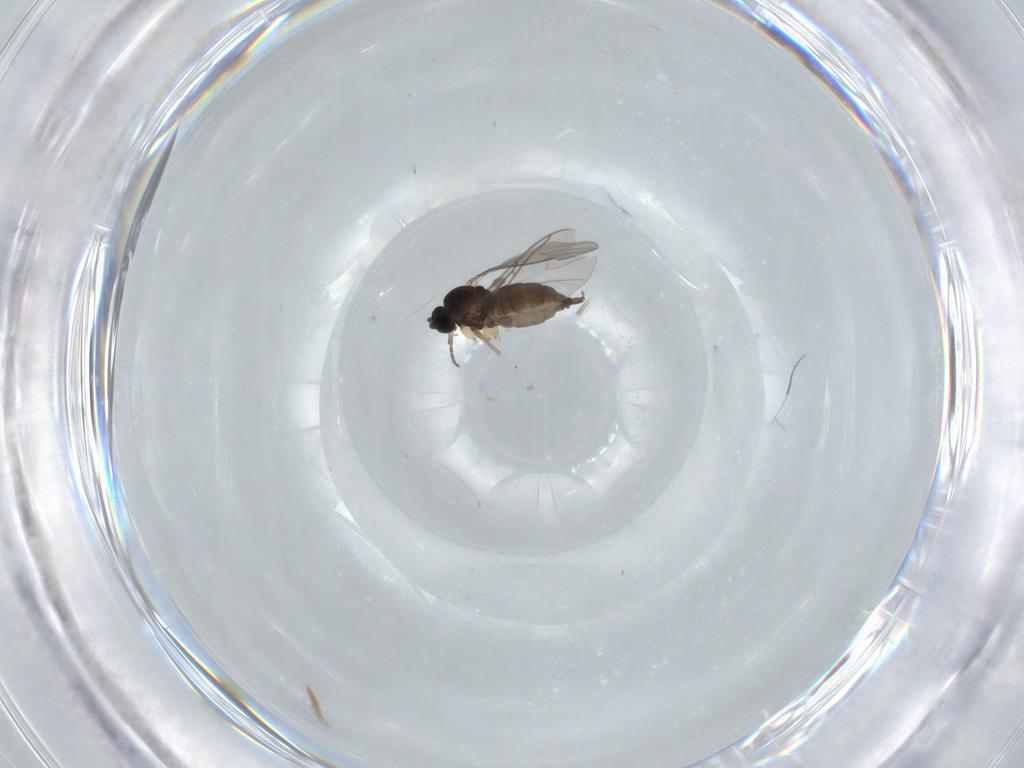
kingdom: Animalia
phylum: Arthropoda
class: Insecta
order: Diptera
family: Sciaridae
